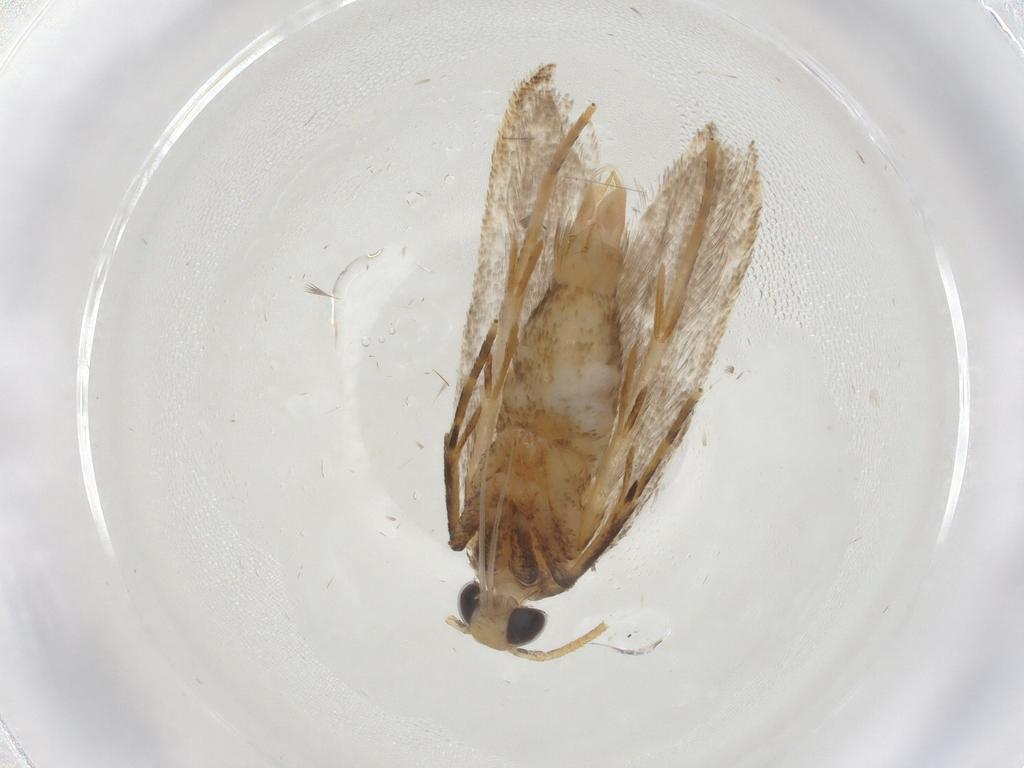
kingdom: Animalia
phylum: Arthropoda
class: Insecta
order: Lepidoptera
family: Oecophoridae
